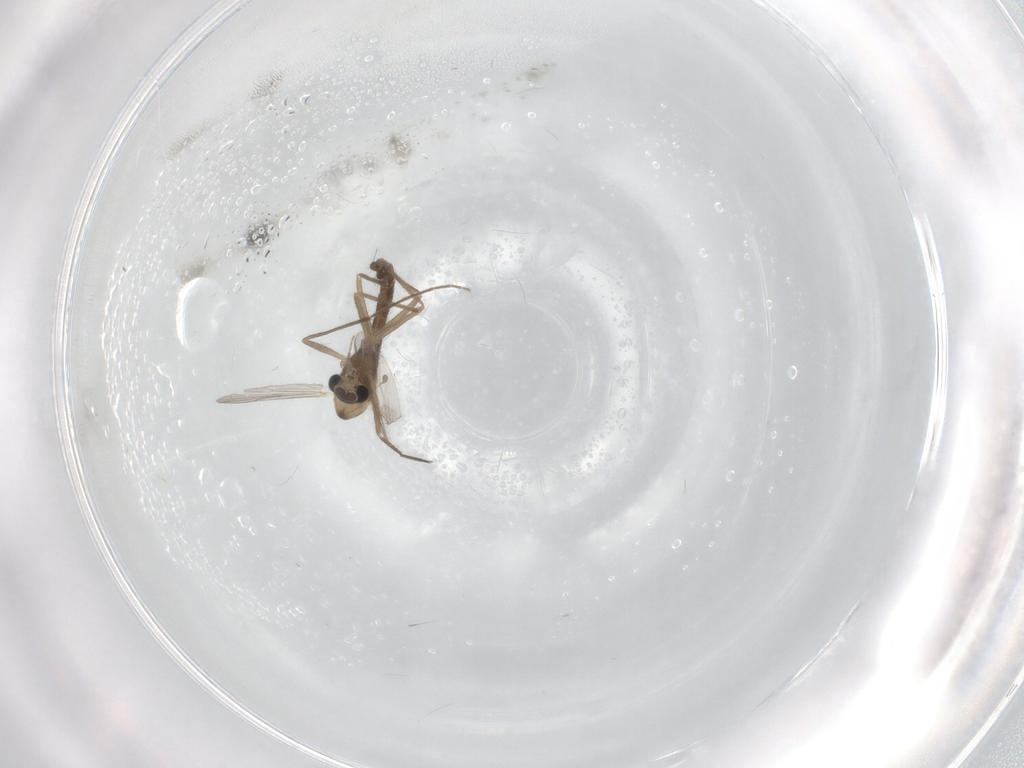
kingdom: Animalia
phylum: Arthropoda
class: Insecta
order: Diptera
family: Chironomidae
